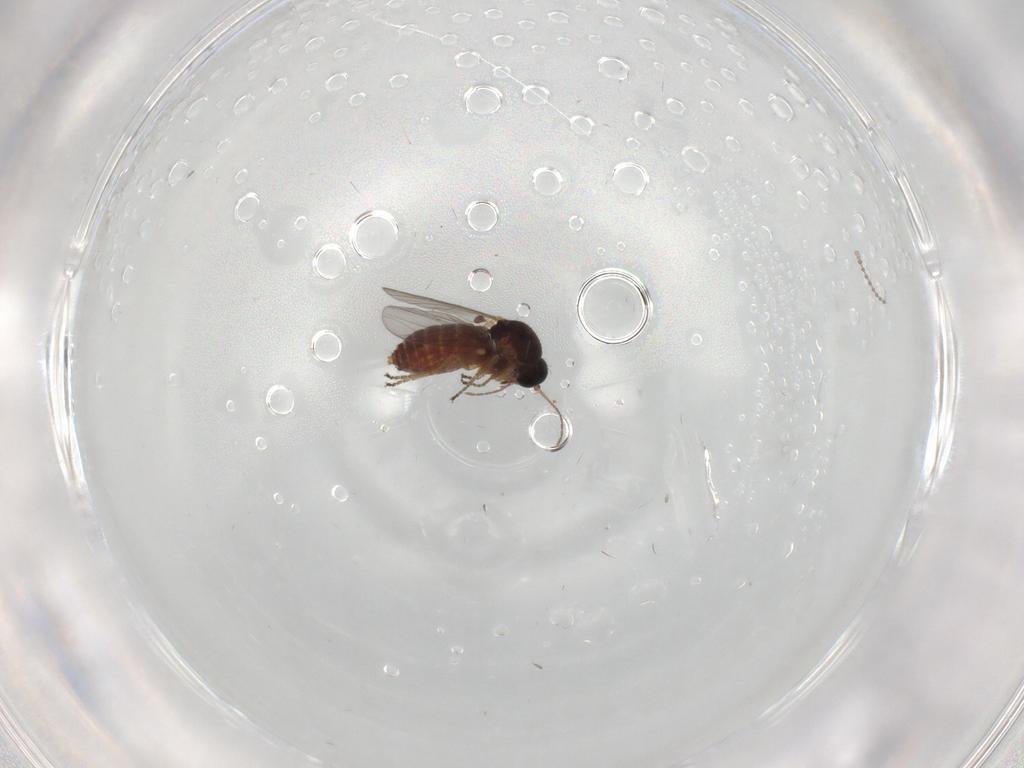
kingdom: Animalia
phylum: Arthropoda
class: Insecta
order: Diptera
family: Ceratopogonidae
